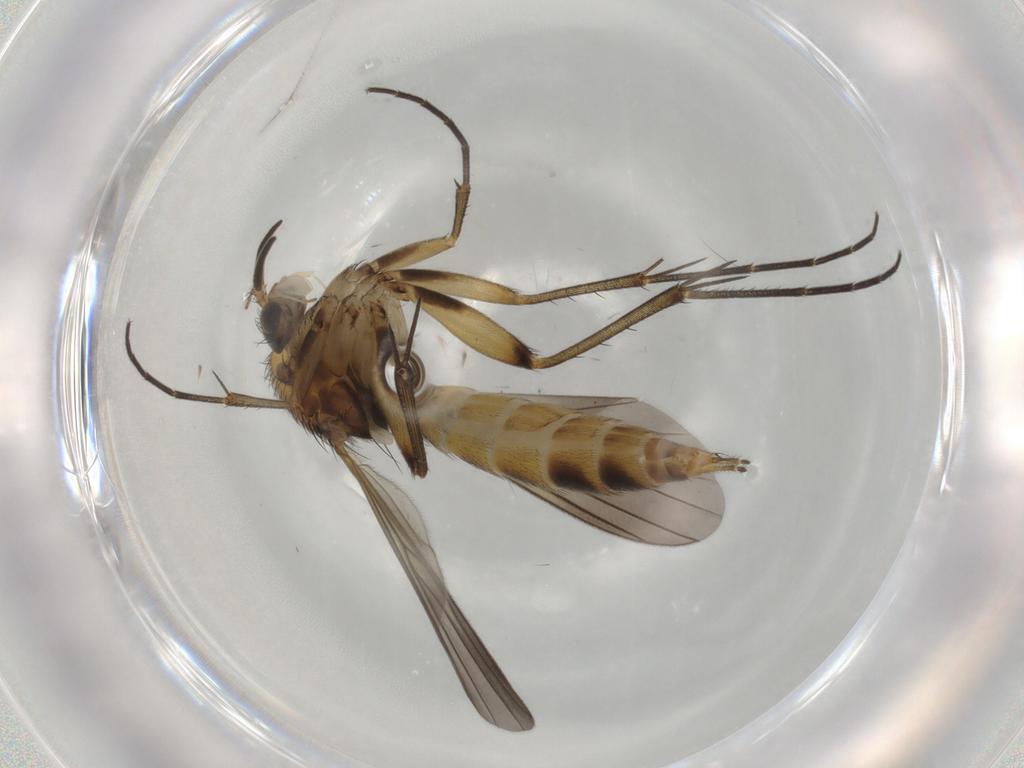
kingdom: Animalia
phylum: Arthropoda
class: Insecta
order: Diptera
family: Mycetophilidae
